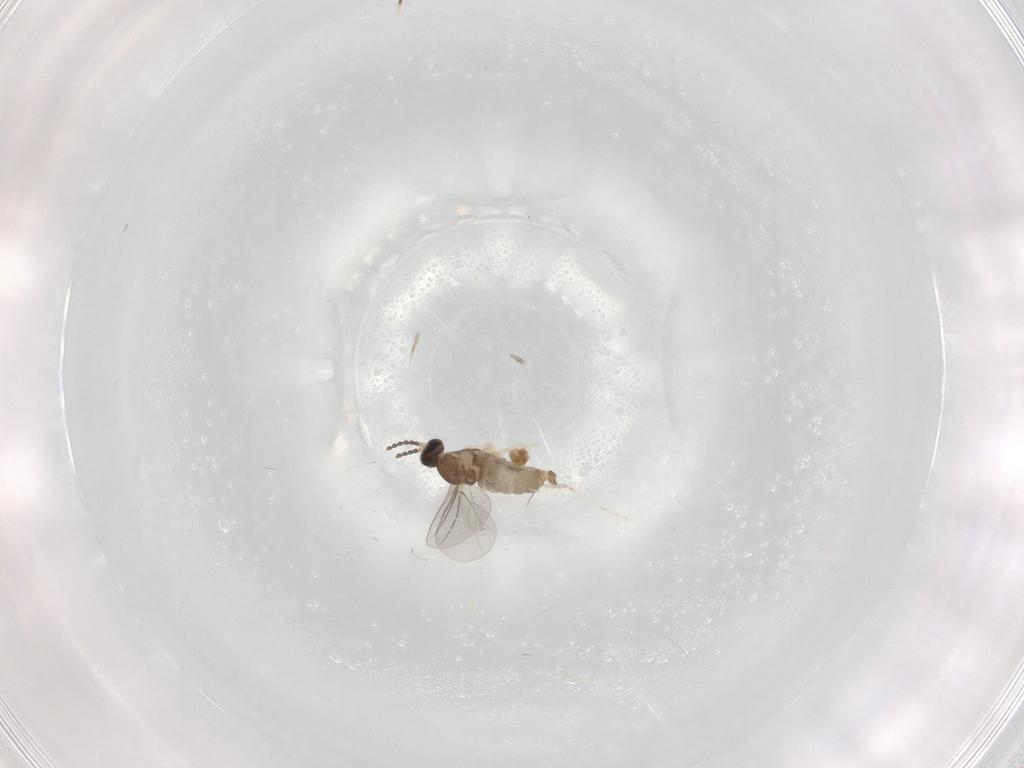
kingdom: Animalia
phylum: Arthropoda
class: Insecta
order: Diptera
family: Cecidomyiidae
